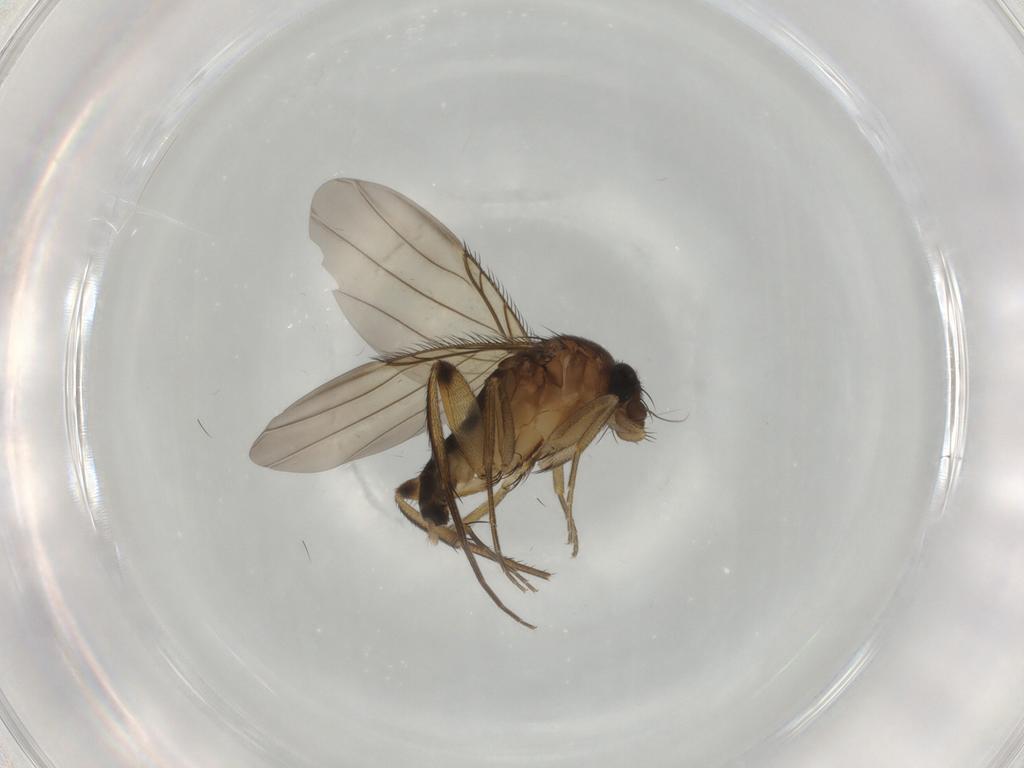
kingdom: Animalia
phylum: Arthropoda
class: Insecta
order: Diptera
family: Phoridae
